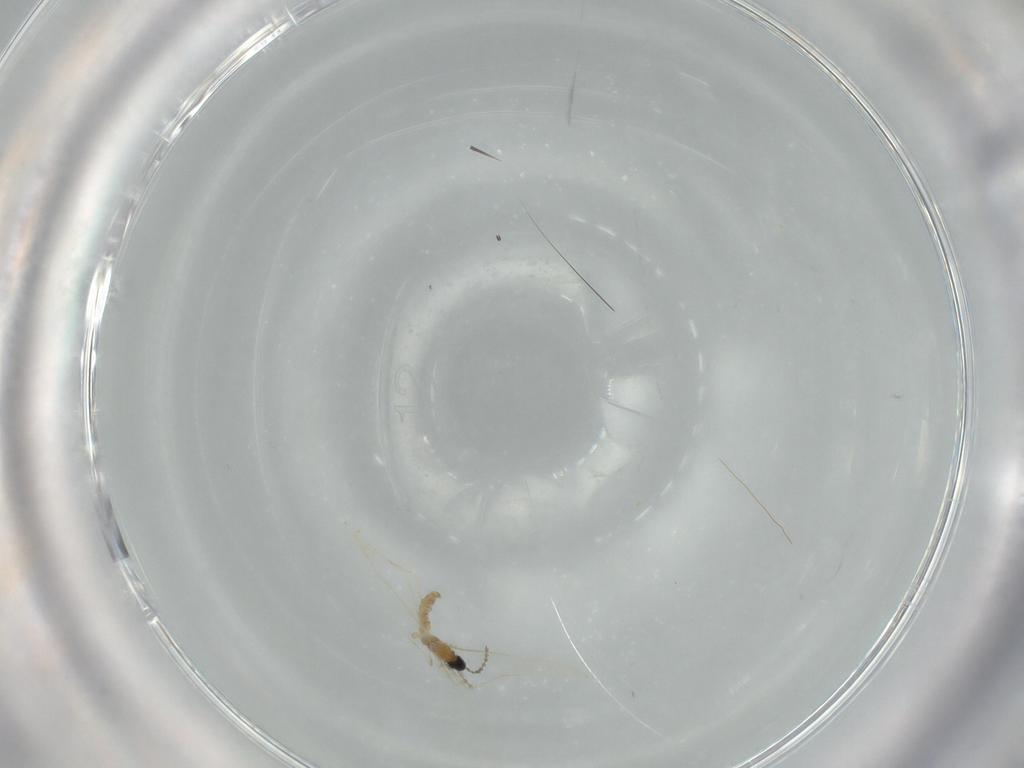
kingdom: Animalia
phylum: Arthropoda
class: Insecta
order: Diptera
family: Cecidomyiidae
